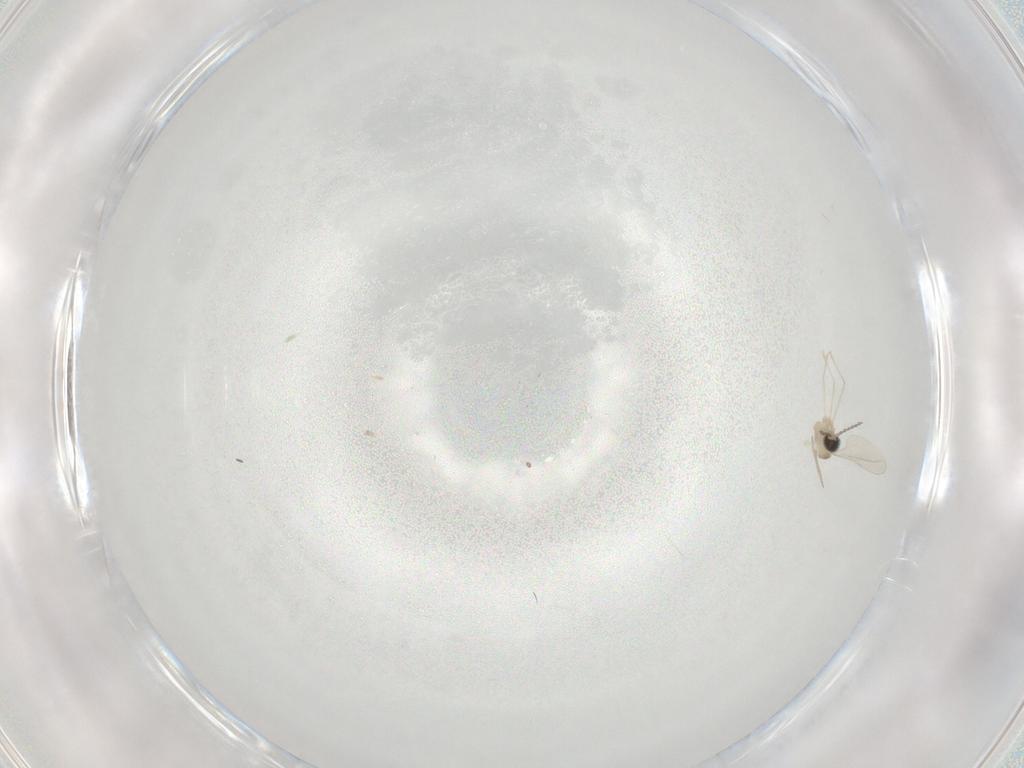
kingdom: Animalia
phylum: Arthropoda
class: Insecta
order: Diptera
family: Cecidomyiidae
